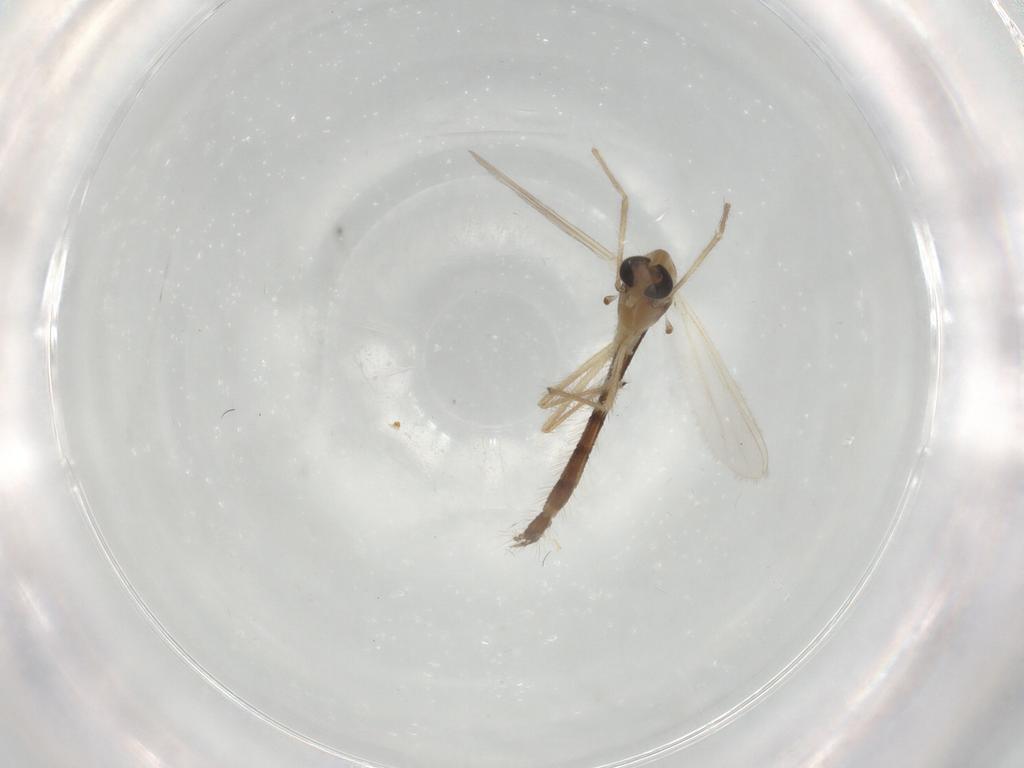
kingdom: Animalia
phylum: Arthropoda
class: Insecta
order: Diptera
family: Chironomidae
